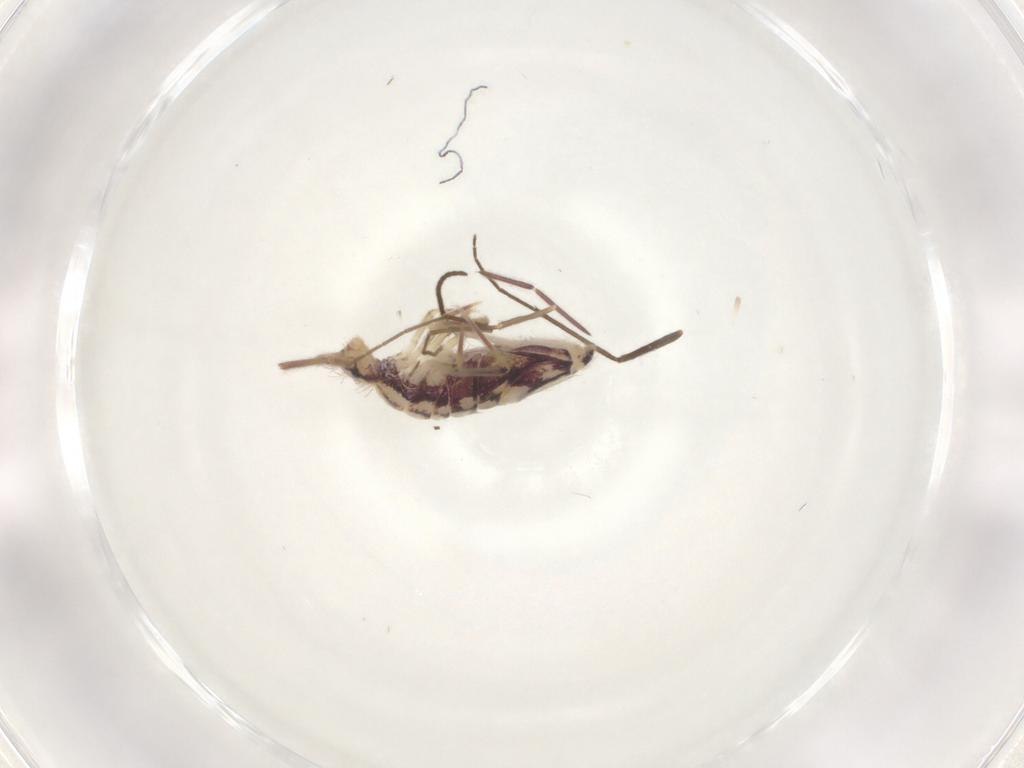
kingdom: Animalia
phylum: Arthropoda
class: Collembola
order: Entomobryomorpha
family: Entomobryidae
